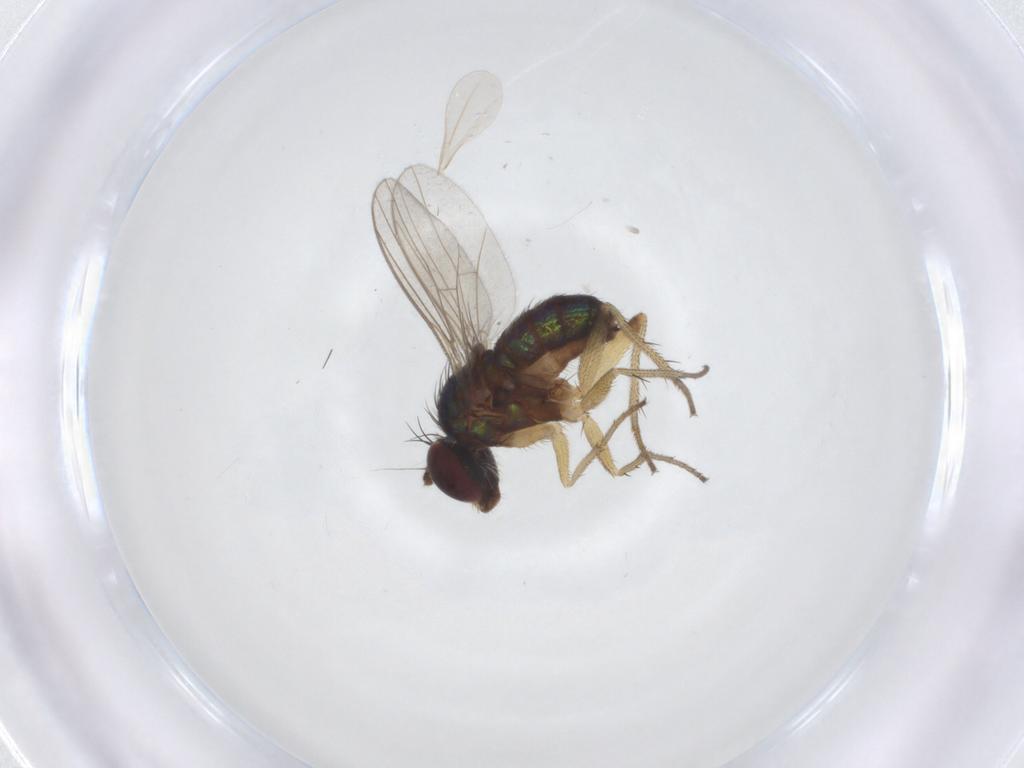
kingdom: Animalia
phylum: Arthropoda
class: Insecta
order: Diptera
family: Dolichopodidae
